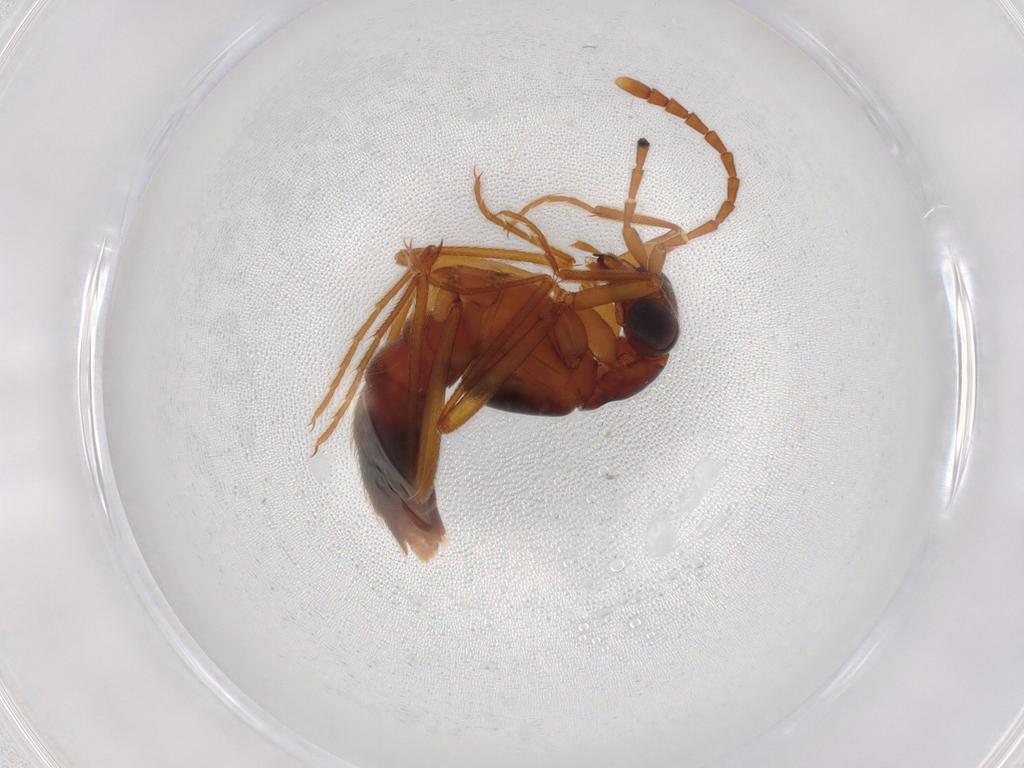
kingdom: Animalia
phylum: Arthropoda
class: Insecta
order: Coleoptera
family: Staphylinidae
